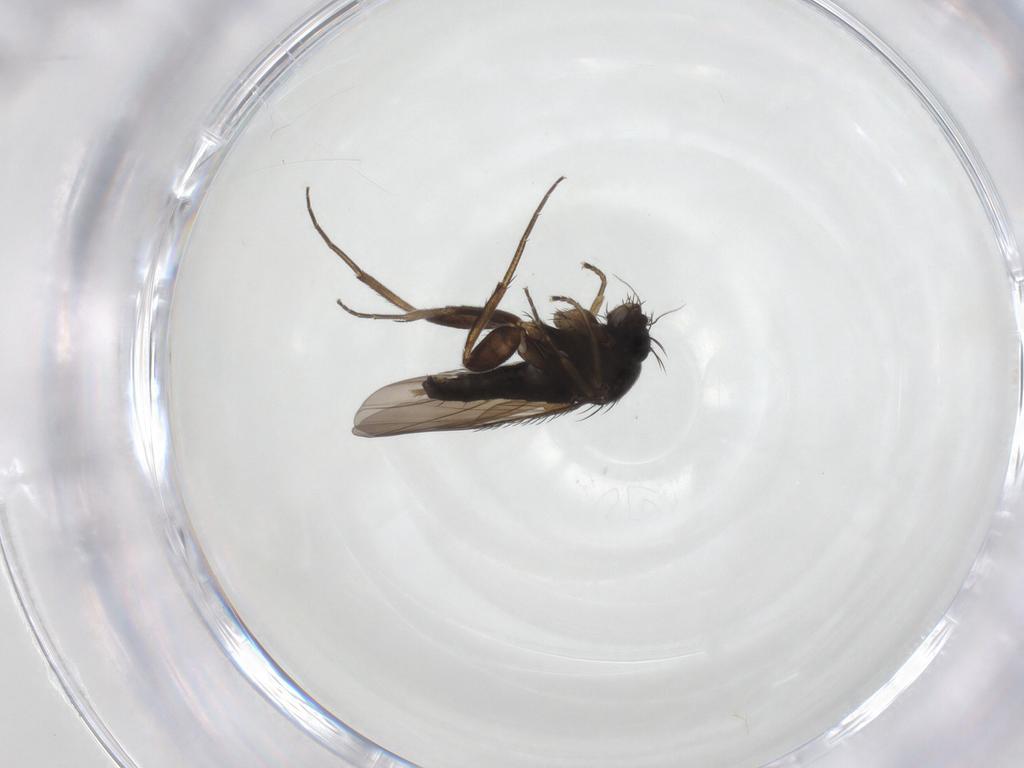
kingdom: Animalia
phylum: Arthropoda
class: Insecta
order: Diptera
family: Phoridae
